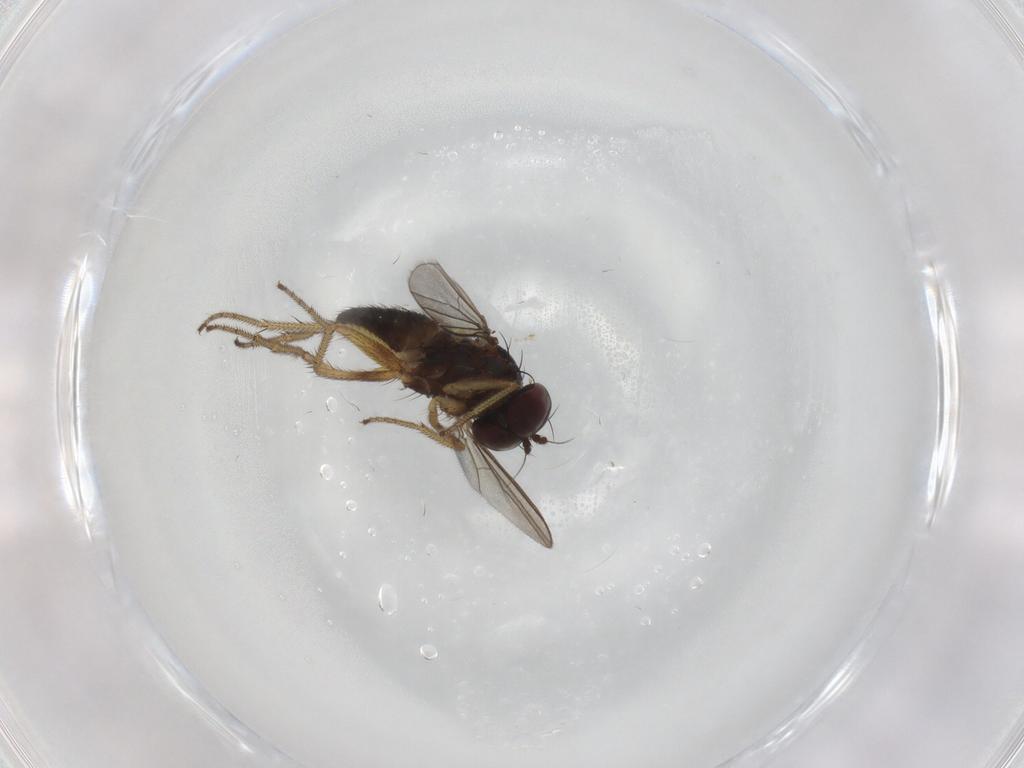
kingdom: Animalia
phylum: Arthropoda
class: Insecta
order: Diptera
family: Dolichopodidae
